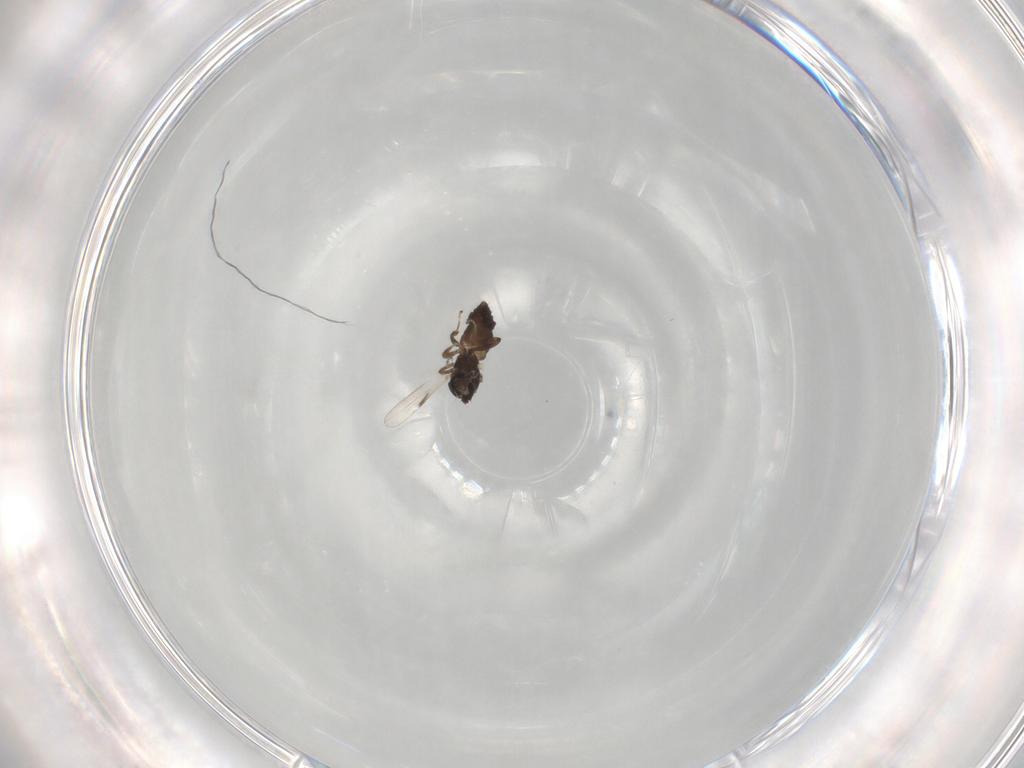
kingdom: Animalia
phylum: Arthropoda
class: Insecta
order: Diptera
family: Ceratopogonidae
